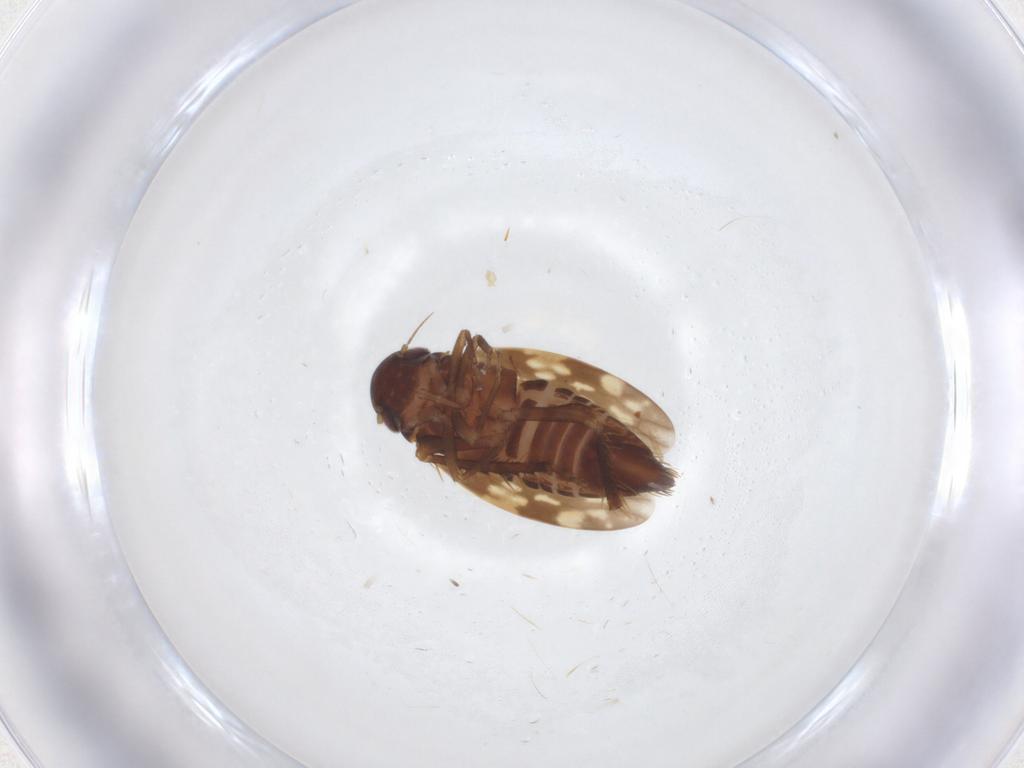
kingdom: Animalia
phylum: Arthropoda
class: Insecta
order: Hemiptera
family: Cicadellidae
